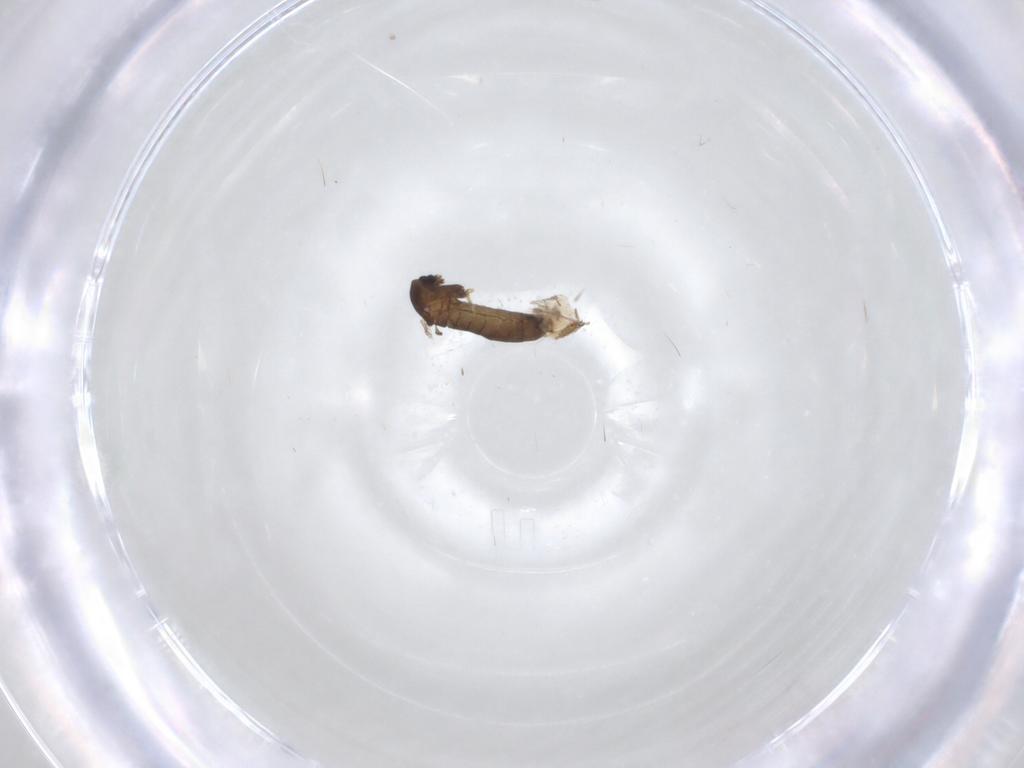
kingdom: Animalia
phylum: Arthropoda
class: Insecta
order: Diptera
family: Chironomidae
